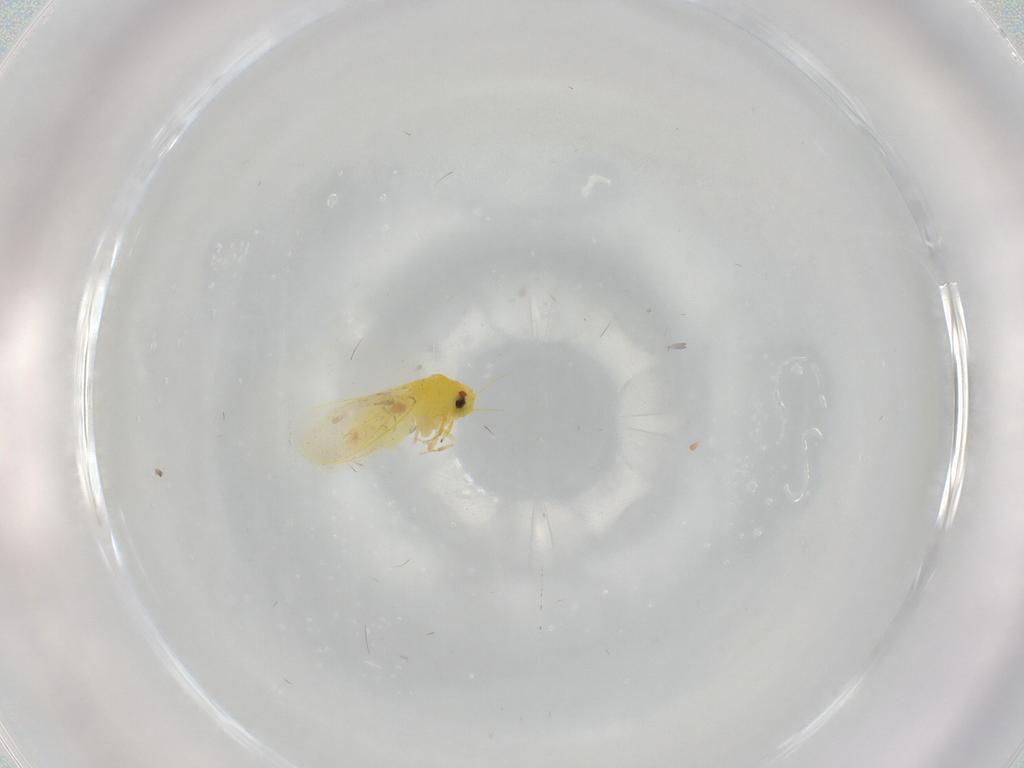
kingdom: Animalia
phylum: Arthropoda
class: Insecta
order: Hemiptera
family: Aleyrodidae
